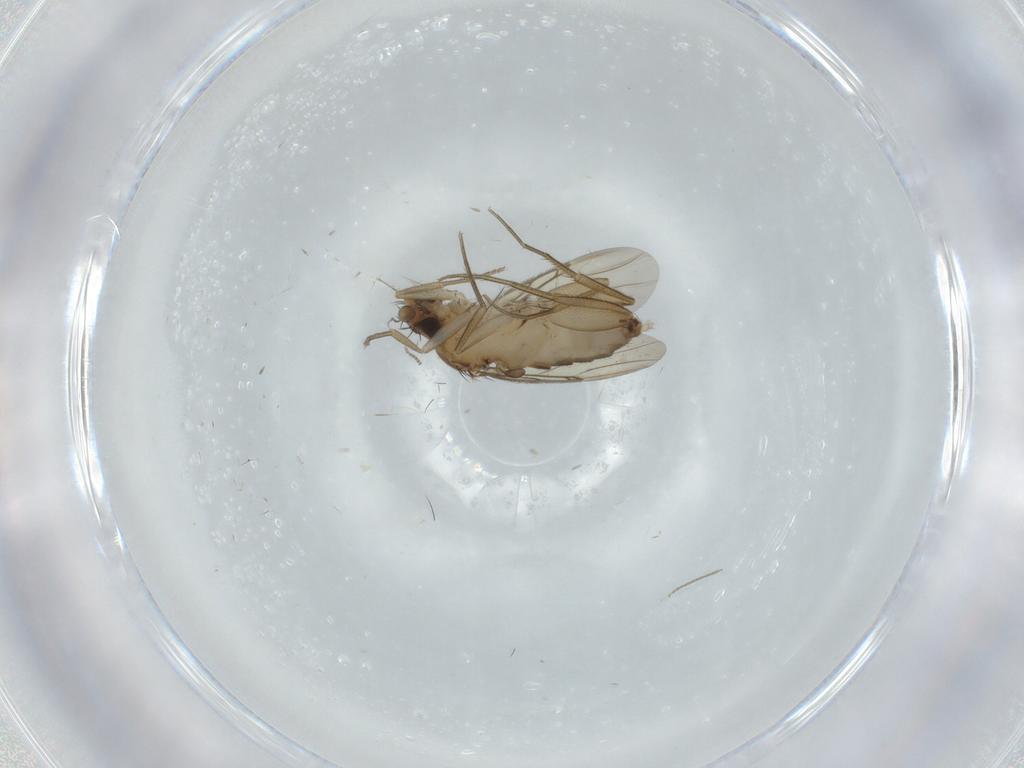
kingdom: Animalia
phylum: Arthropoda
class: Insecta
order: Diptera
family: Phoridae
